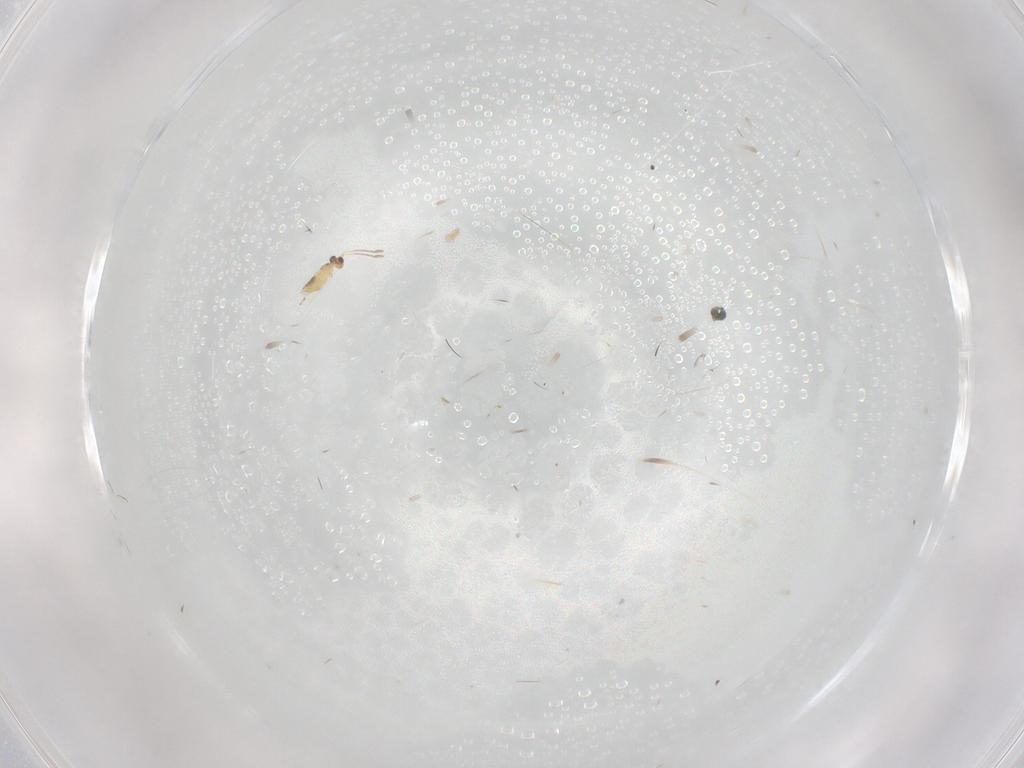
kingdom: Animalia
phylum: Arthropoda
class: Insecta
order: Hymenoptera
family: Mymaridae
